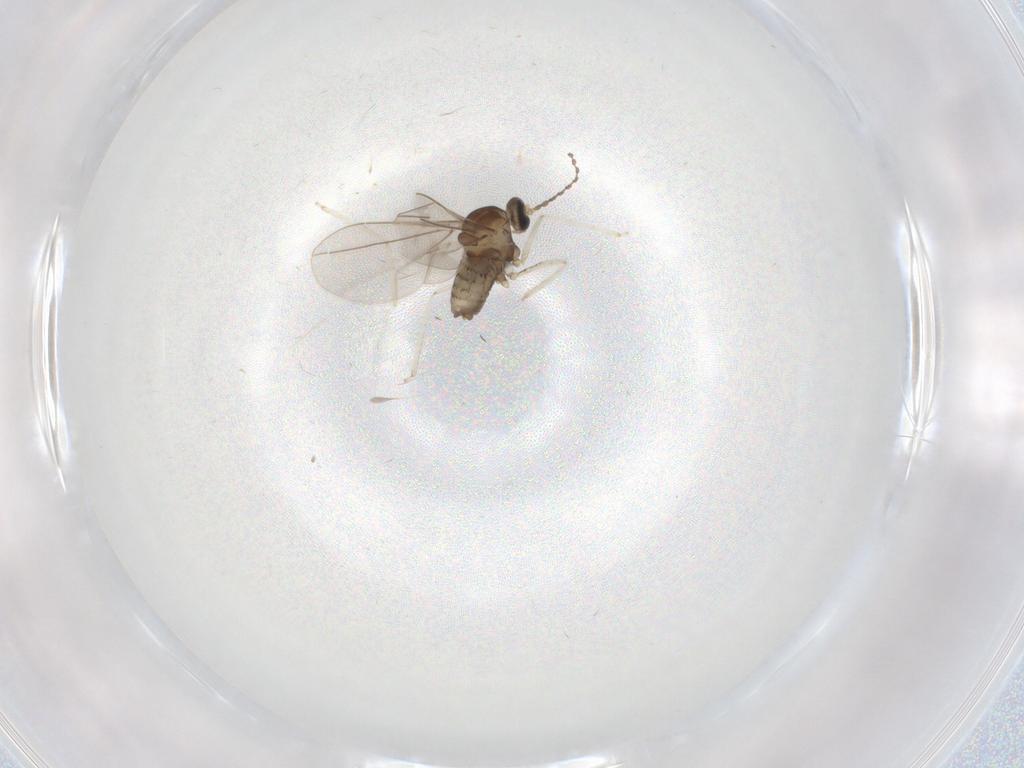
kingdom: Animalia
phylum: Arthropoda
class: Insecta
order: Diptera
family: Cecidomyiidae
